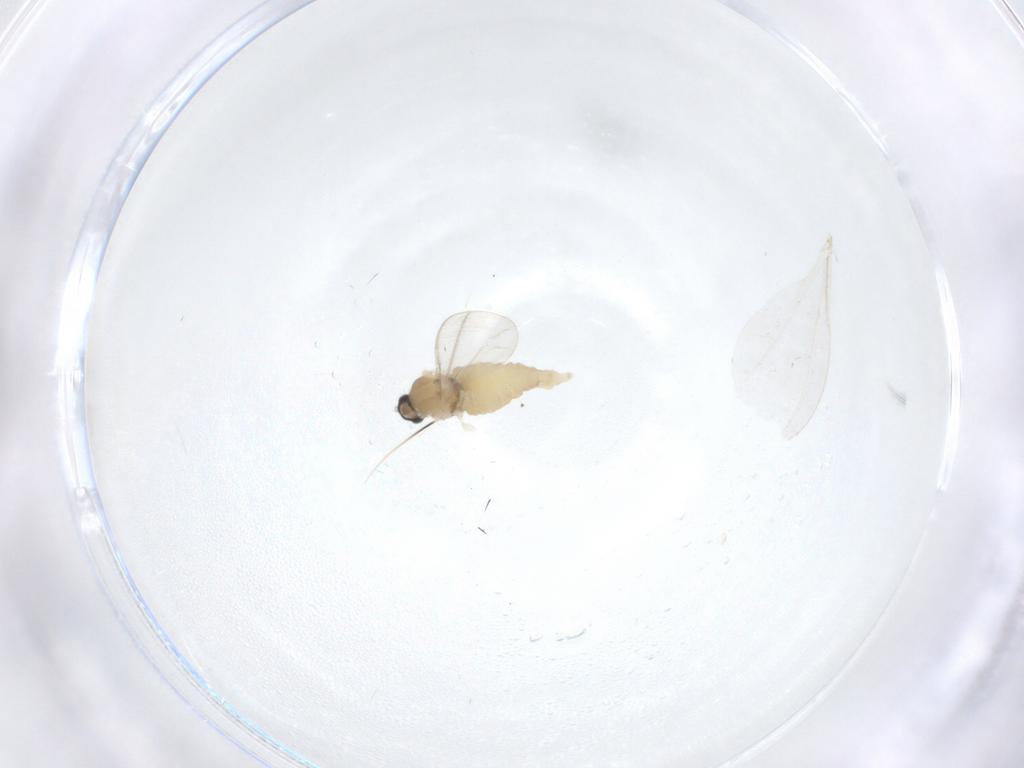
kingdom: Animalia
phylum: Arthropoda
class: Insecta
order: Diptera
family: Cecidomyiidae
